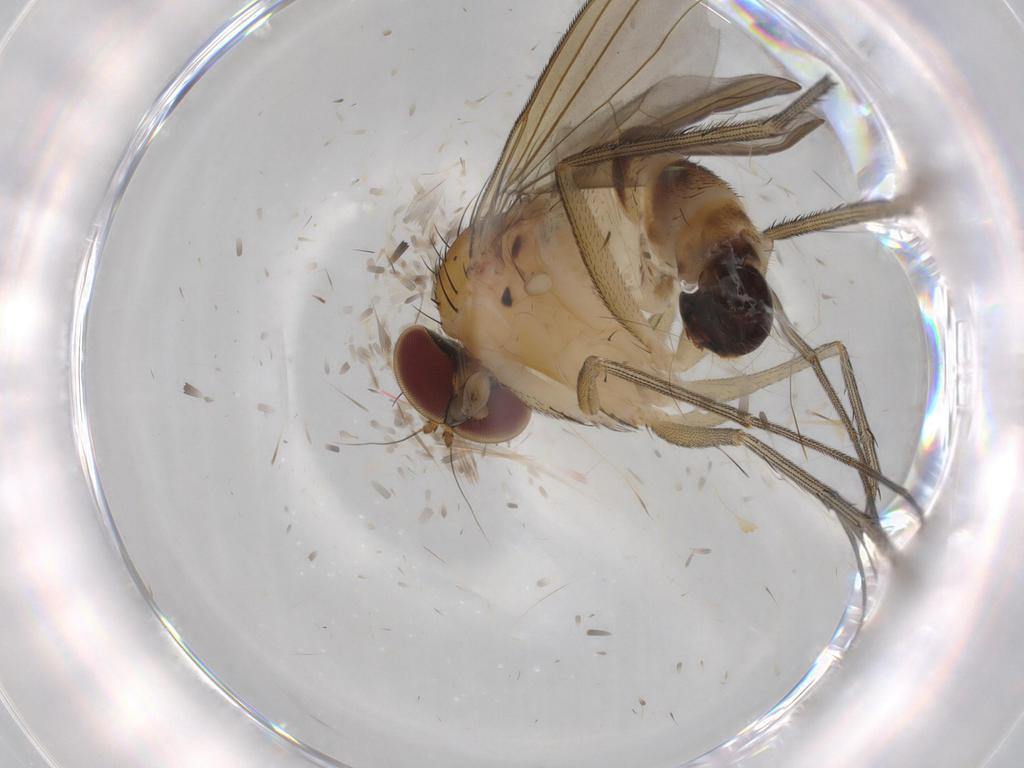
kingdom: Animalia
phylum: Arthropoda
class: Insecta
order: Diptera
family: Dolichopodidae
